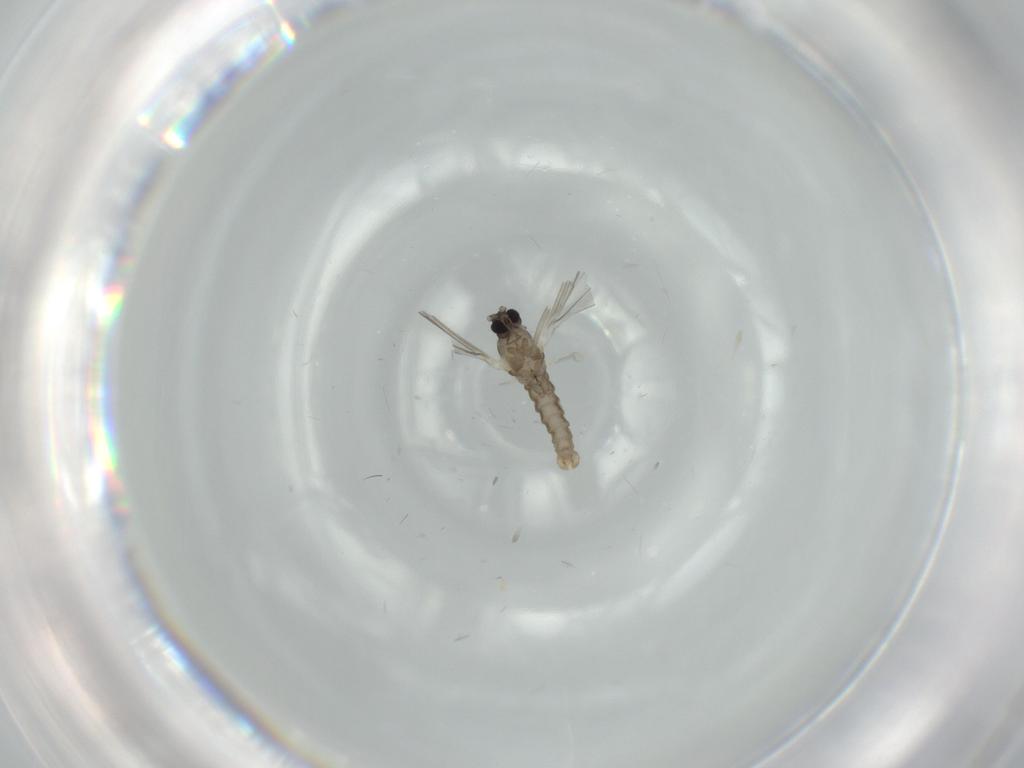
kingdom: Animalia
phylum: Arthropoda
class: Insecta
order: Diptera
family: Cecidomyiidae
